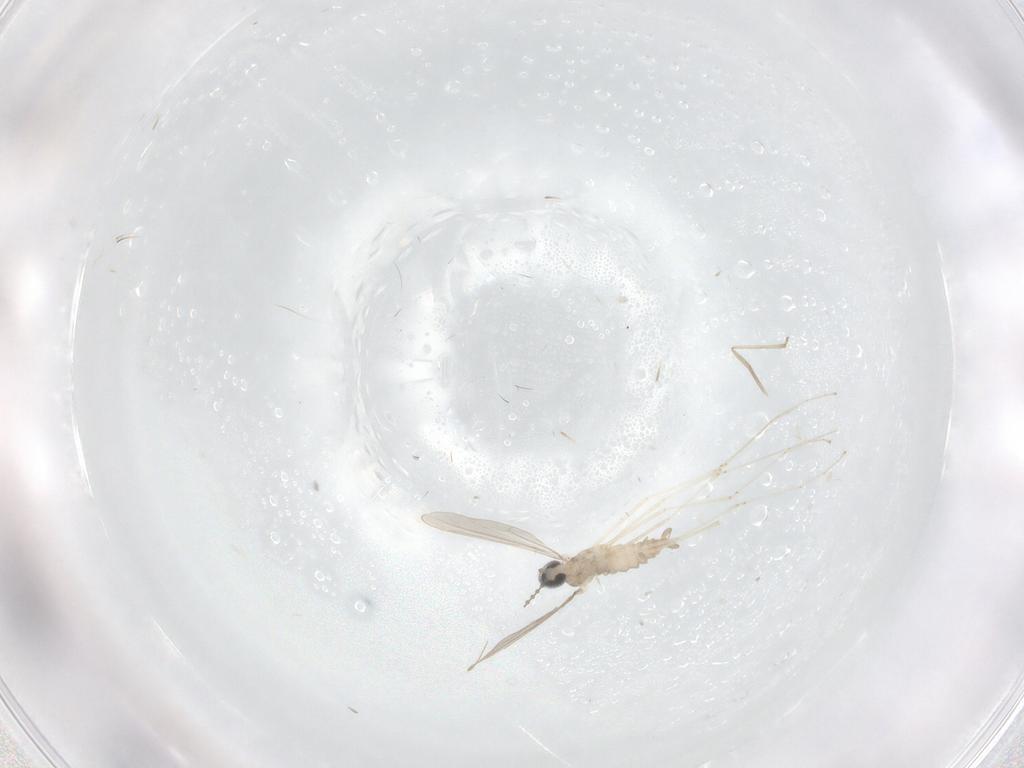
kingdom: Animalia
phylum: Arthropoda
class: Insecta
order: Diptera
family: Cecidomyiidae
